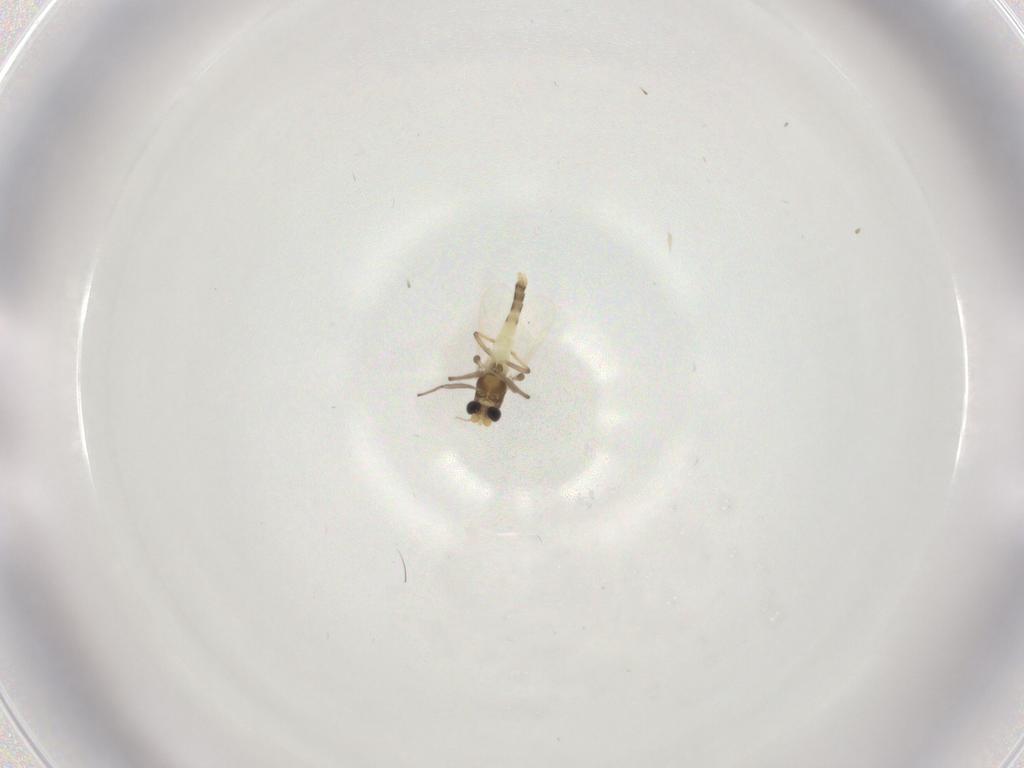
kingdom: Animalia
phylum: Arthropoda
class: Insecta
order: Diptera
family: Chironomidae
